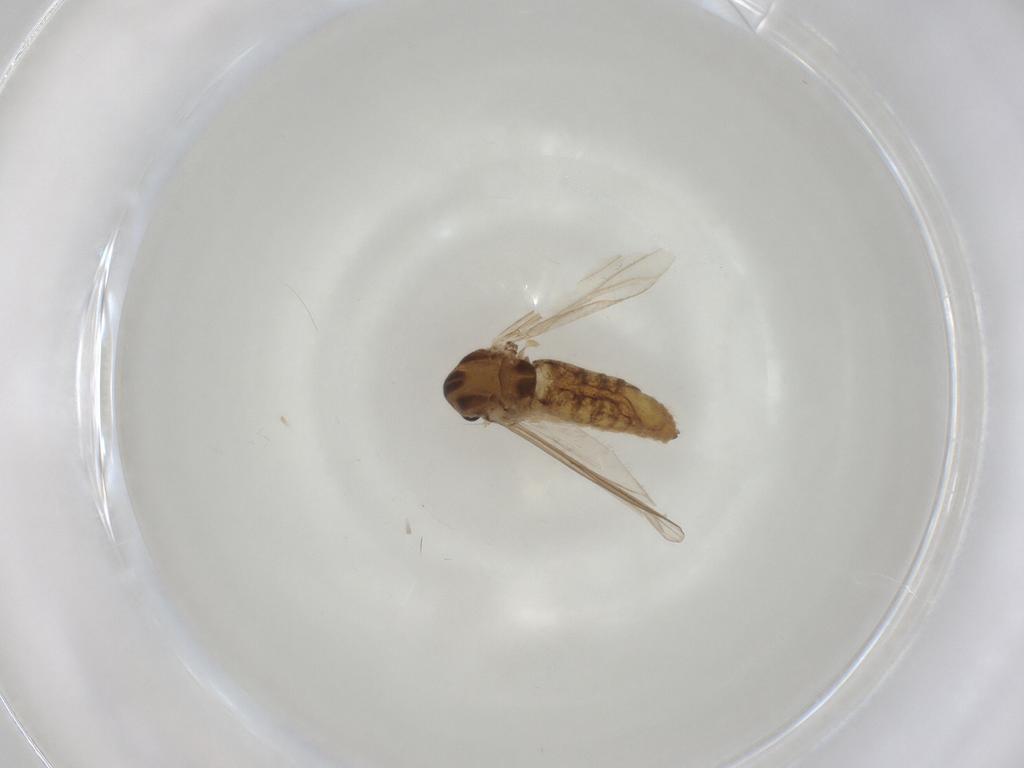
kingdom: Animalia
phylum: Arthropoda
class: Insecta
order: Diptera
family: Chironomidae
